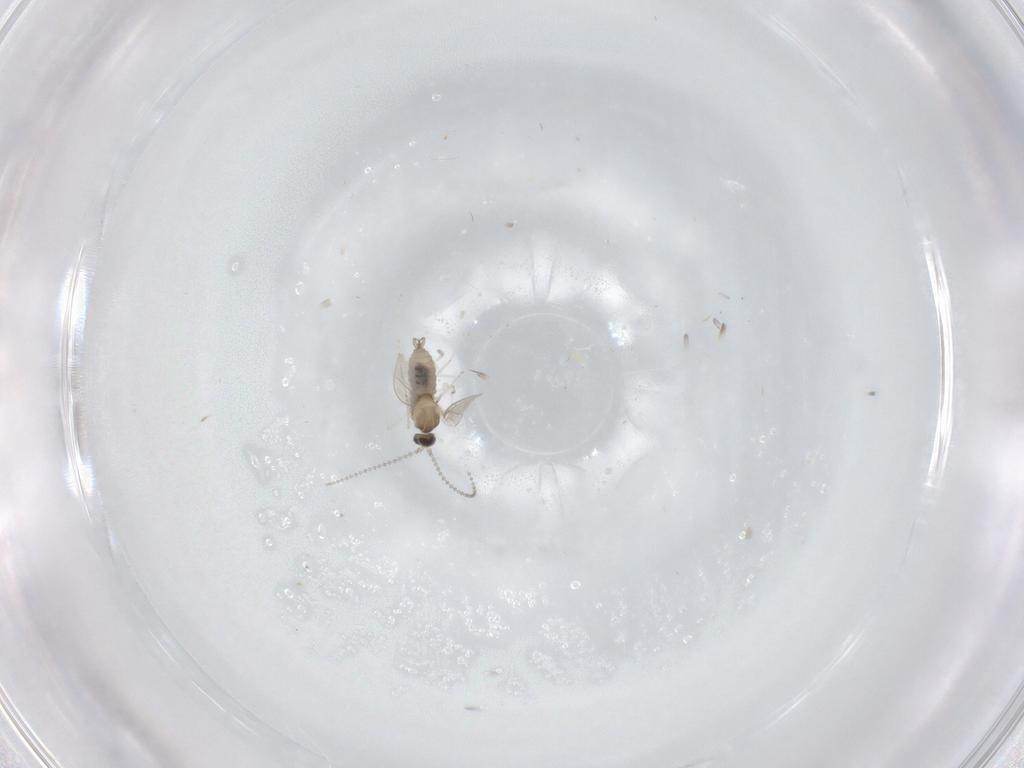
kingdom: Animalia
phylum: Arthropoda
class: Insecta
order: Diptera
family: Cecidomyiidae
